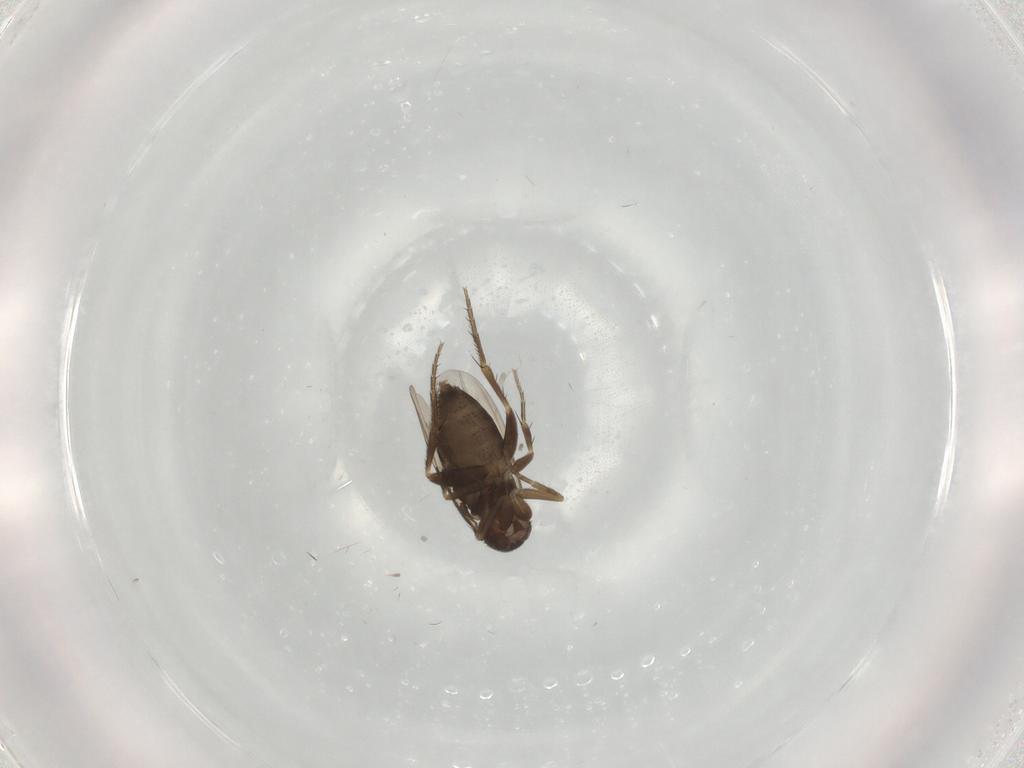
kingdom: Animalia
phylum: Arthropoda
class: Insecta
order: Diptera
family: Phoridae
